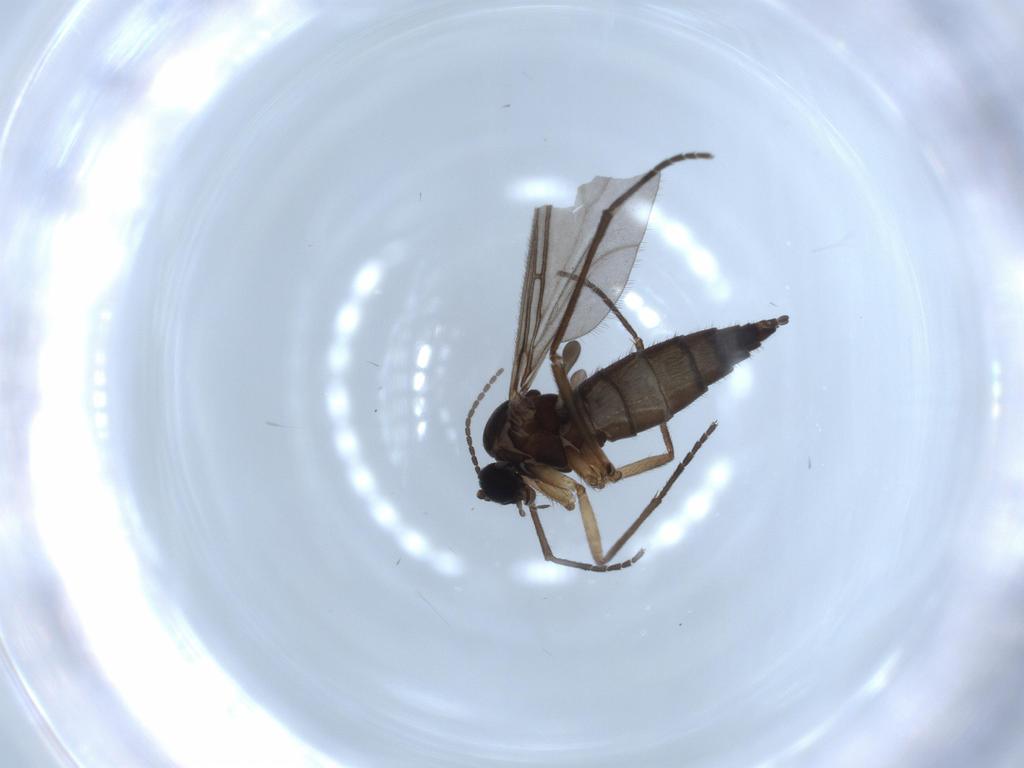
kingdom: Animalia
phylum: Arthropoda
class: Insecta
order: Diptera
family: Sciaridae
